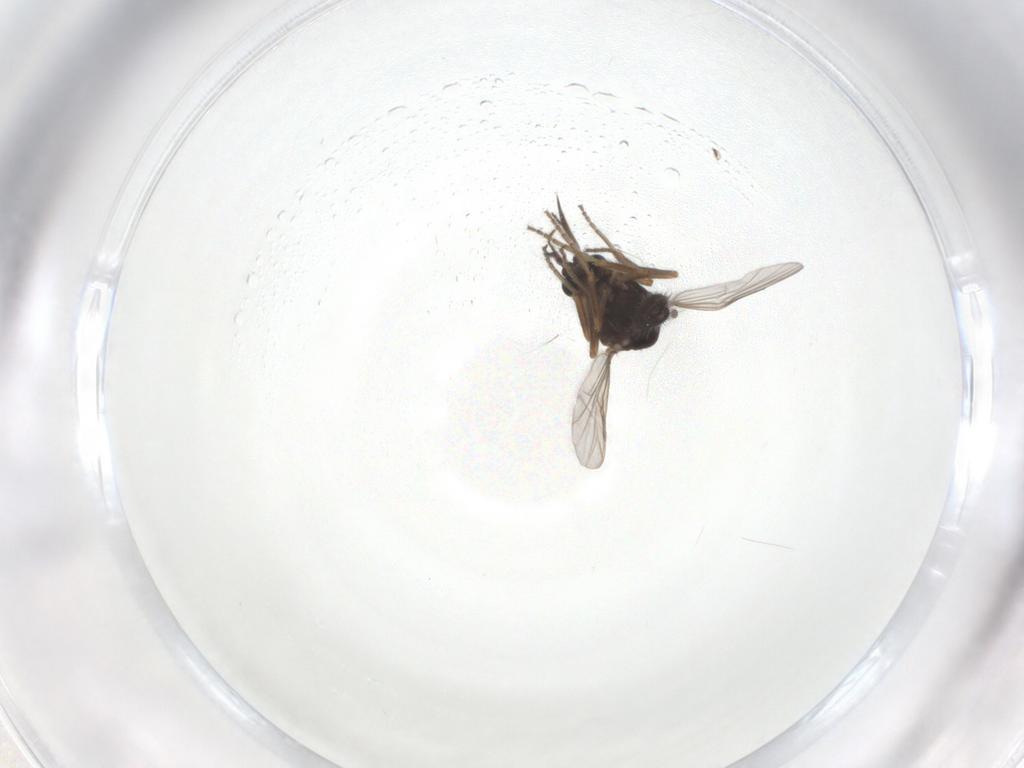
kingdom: Animalia
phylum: Arthropoda
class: Insecta
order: Diptera
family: Ceratopogonidae
